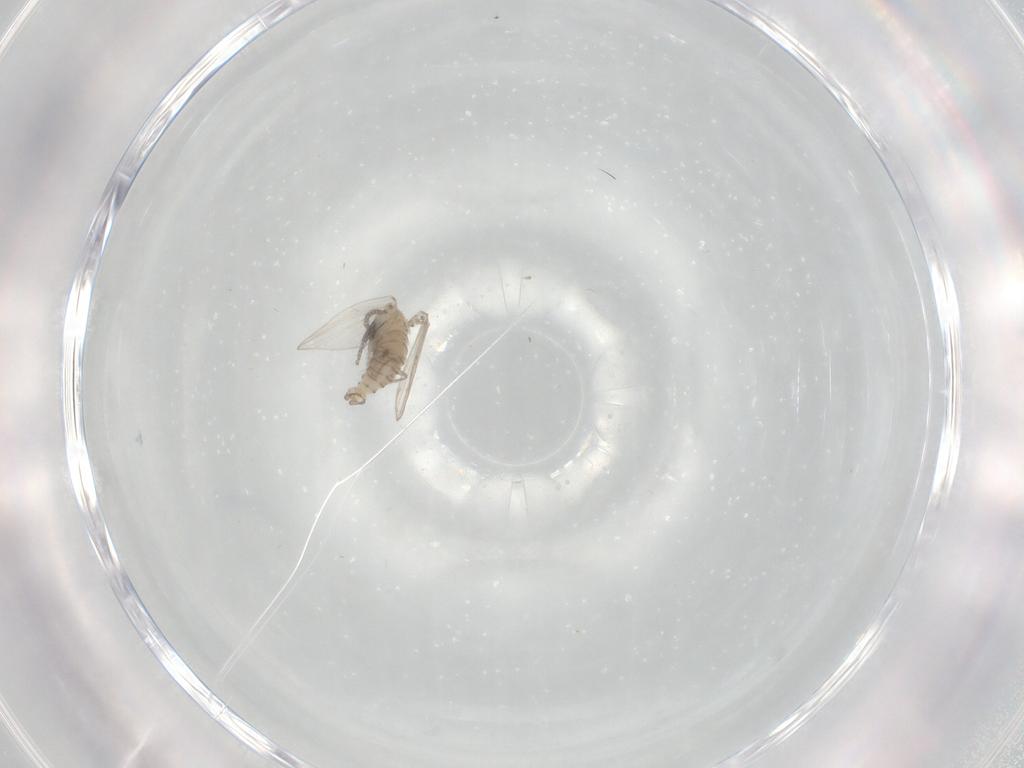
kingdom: Animalia
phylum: Arthropoda
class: Insecta
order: Diptera
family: Psychodidae
